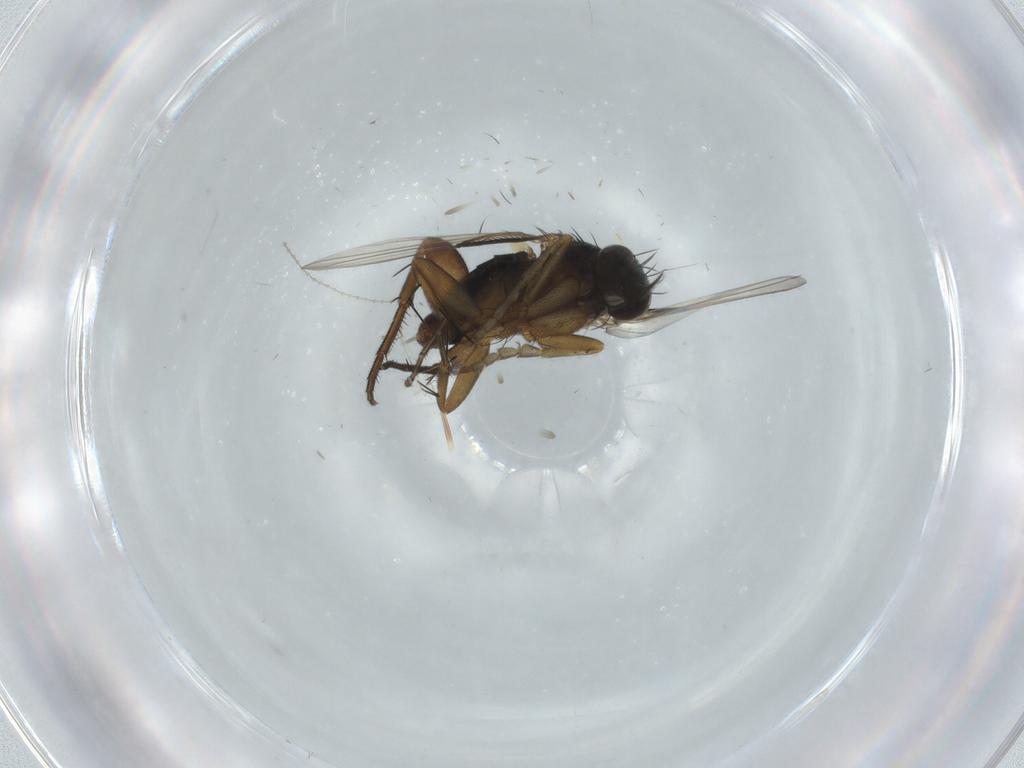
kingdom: Animalia
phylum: Arthropoda
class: Insecta
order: Diptera
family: Phoridae
